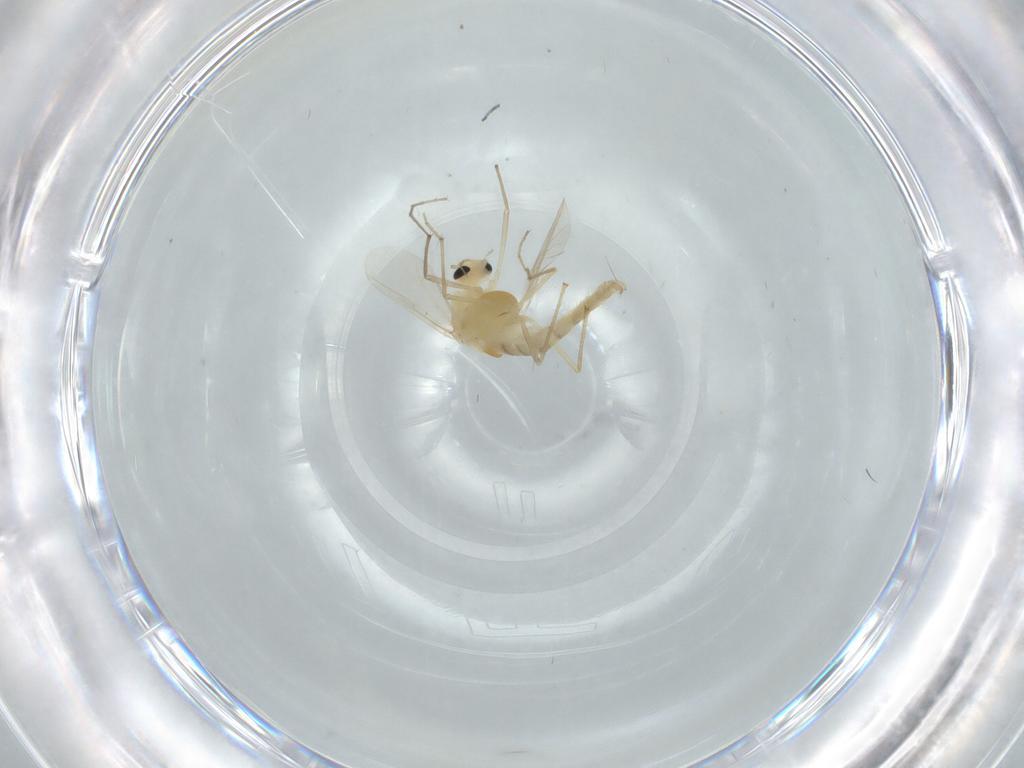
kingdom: Animalia
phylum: Arthropoda
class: Insecta
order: Diptera
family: Chironomidae
